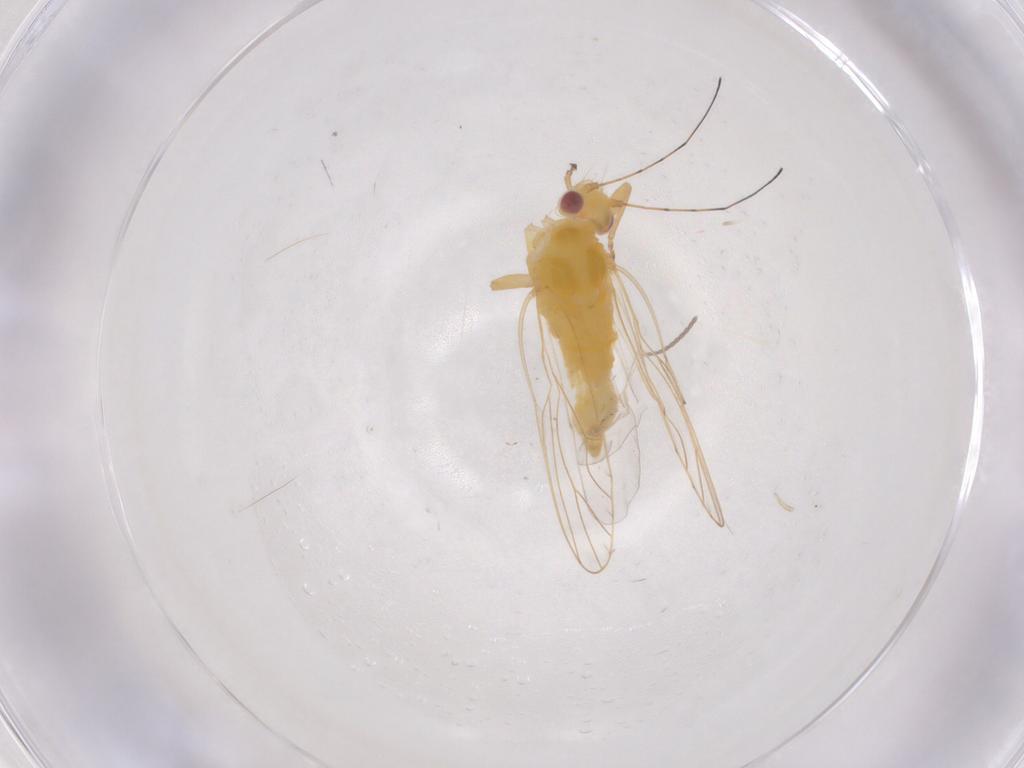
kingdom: Animalia
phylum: Arthropoda
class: Insecta
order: Hemiptera
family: Psyllidae
